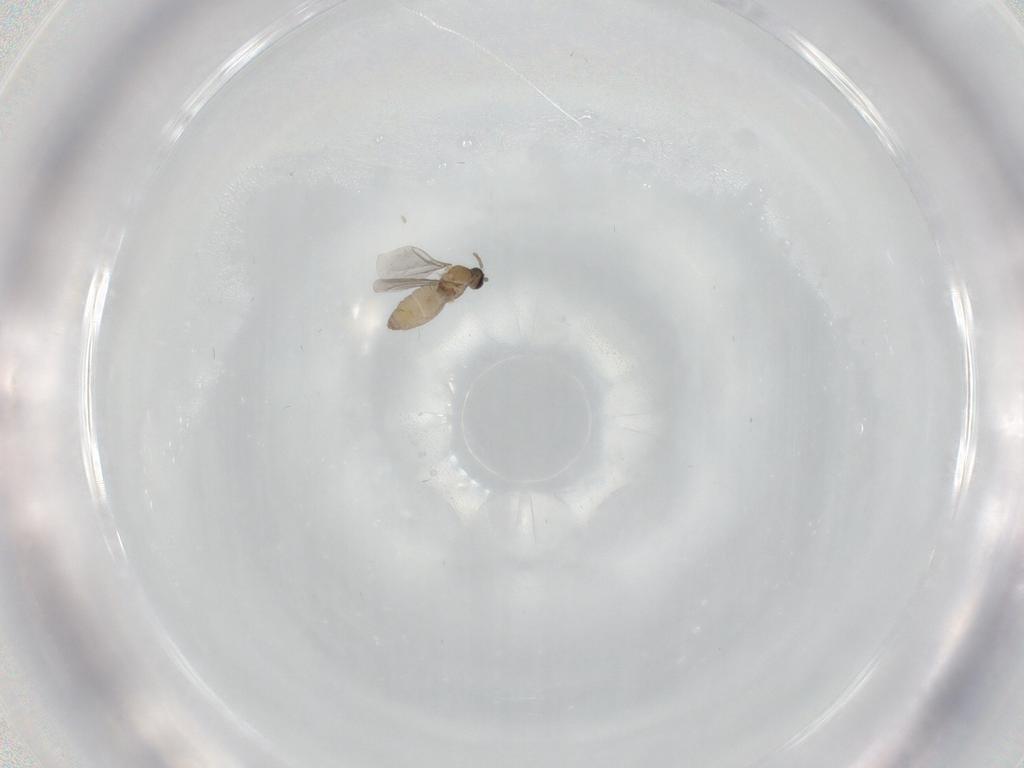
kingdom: Animalia
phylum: Arthropoda
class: Insecta
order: Diptera
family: Cecidomyiidae
